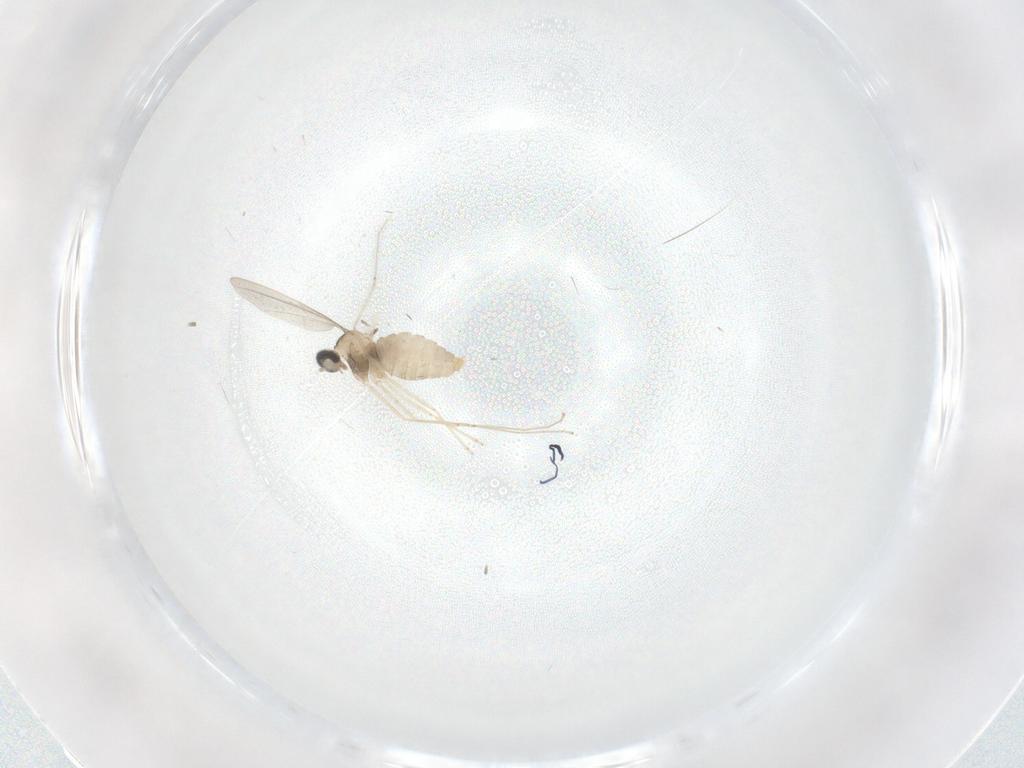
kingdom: Animalia
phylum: Arthropoda
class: Insecta
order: Diptera
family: Cecidomyiidae
